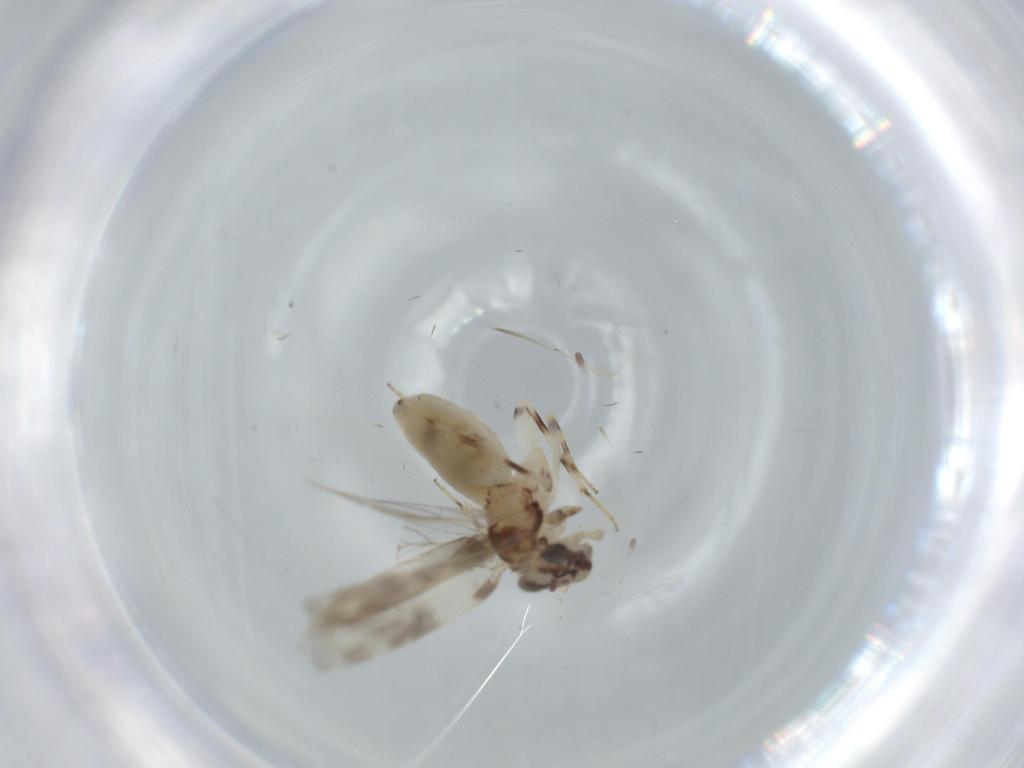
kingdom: Animalia
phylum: Arthropoda
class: Insecta
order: Psocodea
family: Lepidopsocidae
